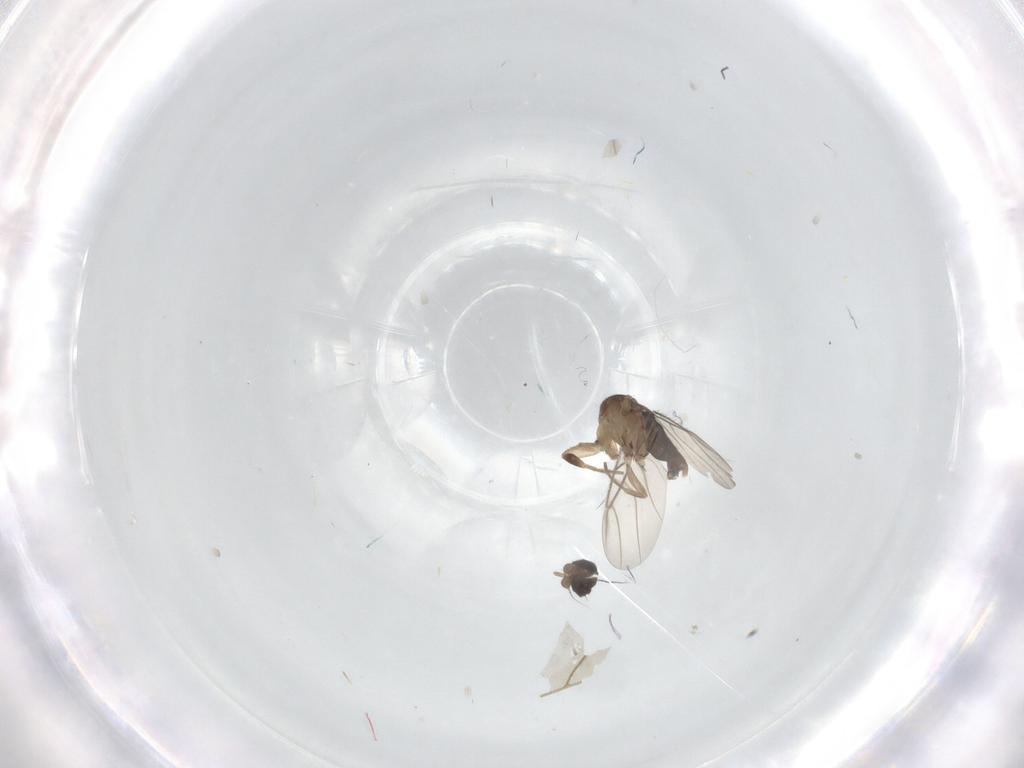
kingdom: Animalia
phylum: Arthropoda
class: Insecta
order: Diptera
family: Phoridae
